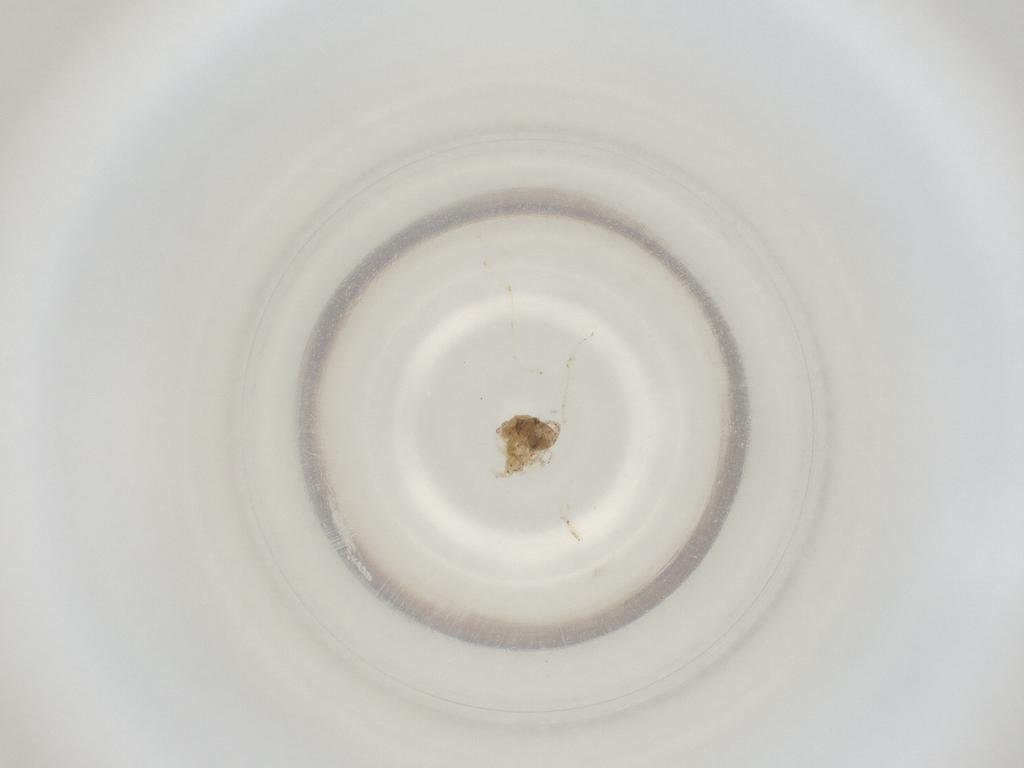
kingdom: Animalia
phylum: Arthropoda
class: Insecta
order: Diptera
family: Cecidomyiidae
